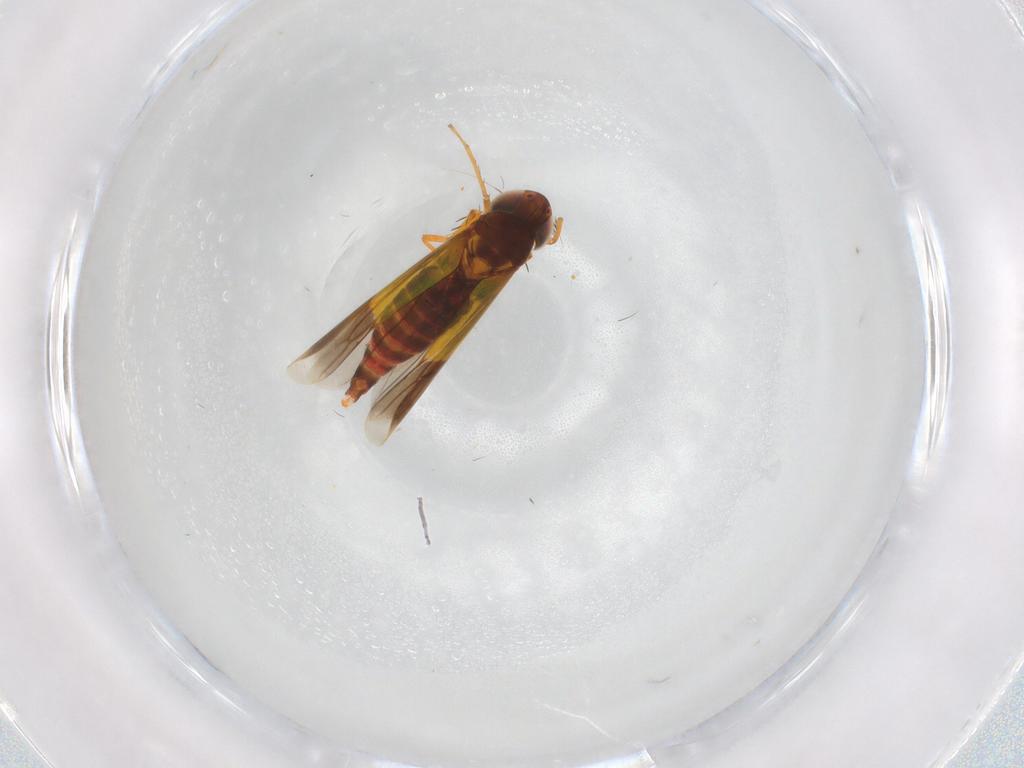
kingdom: Animalia
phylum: Arthropoda
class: Insecta
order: Hemiptera
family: Cicadellidae
